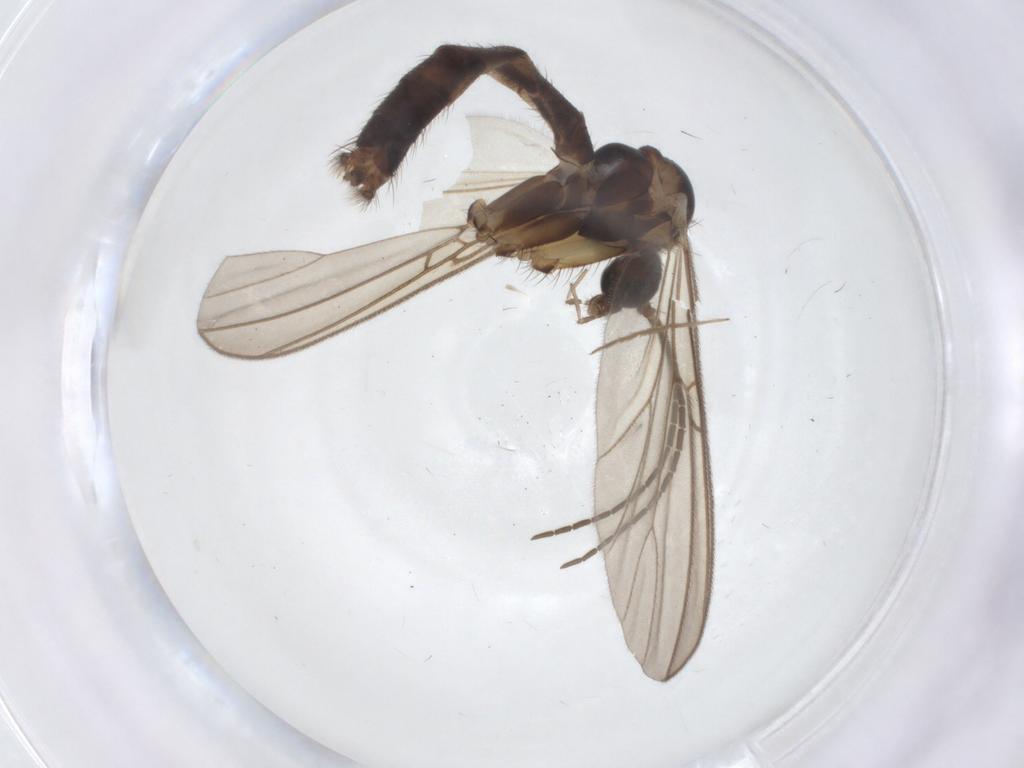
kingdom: Animalia
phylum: Arthropoda
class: Insecta
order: Diptera
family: Mycetophilidae
